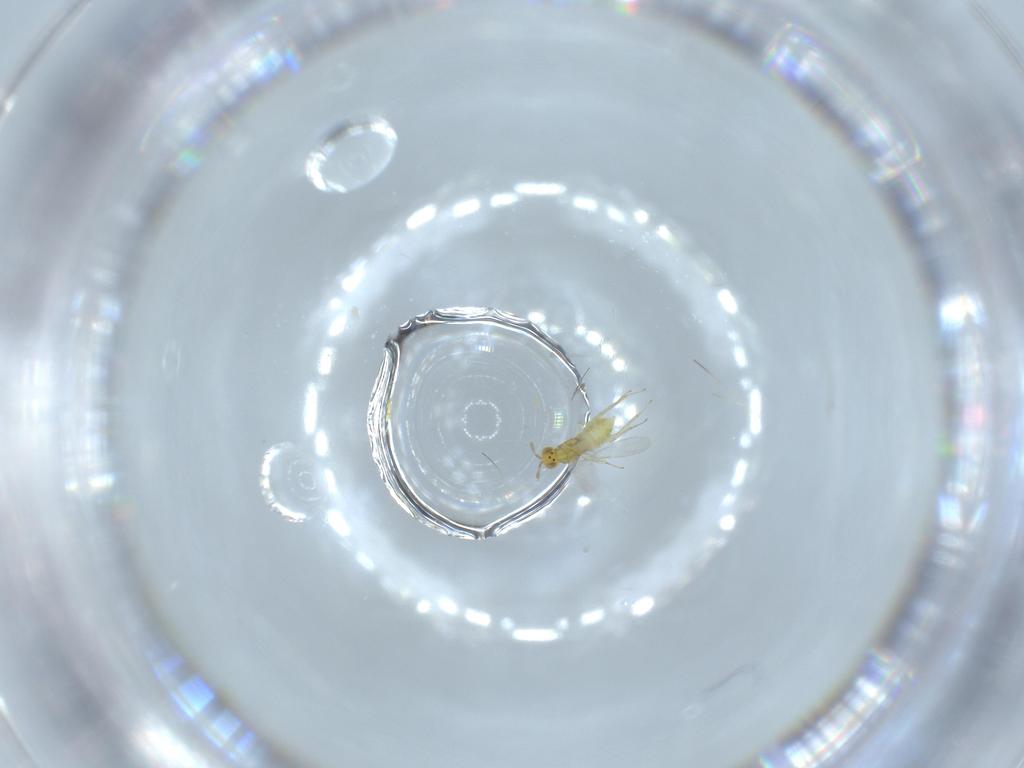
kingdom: Animalia
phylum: Arthropoda
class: Insecta
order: Hymenoptera
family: Aphelinidae
